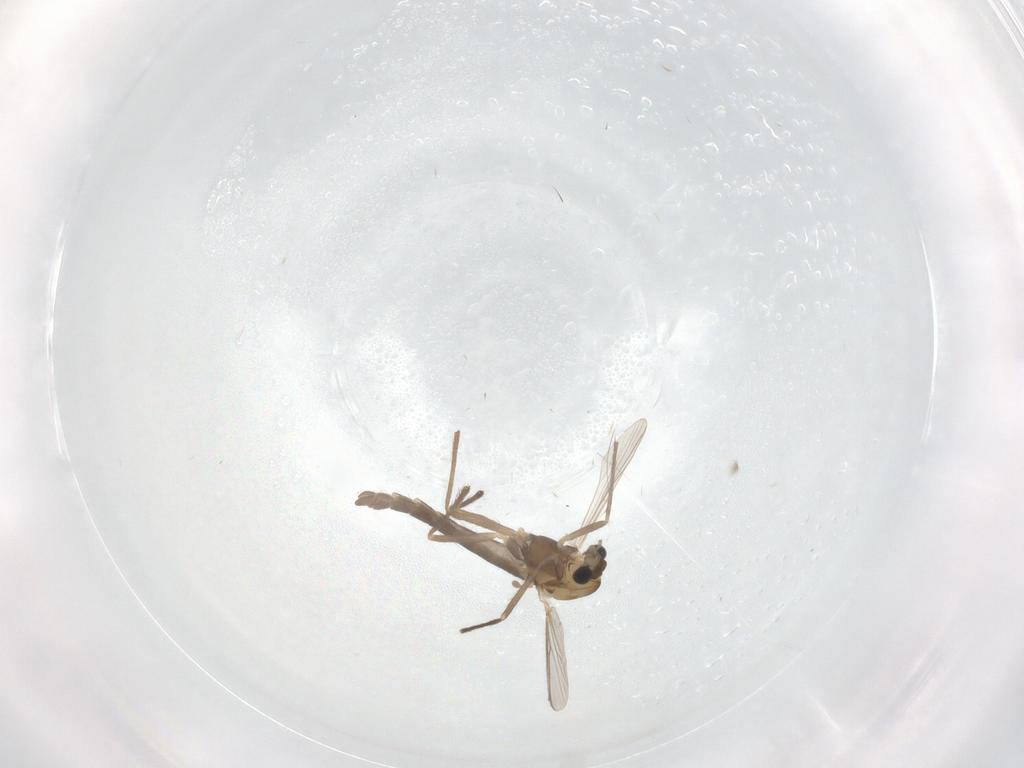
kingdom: Animalia
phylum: Arthropoda
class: Insecta
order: Diptera
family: Chironomidae
